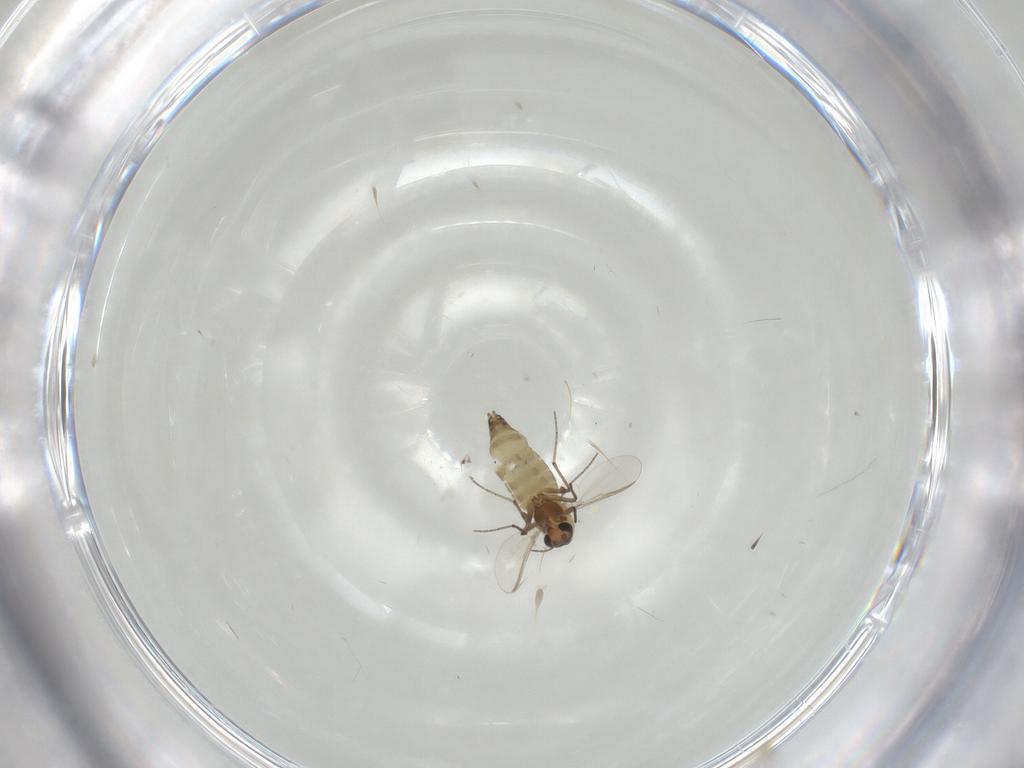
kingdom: Animalia
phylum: Arthropoda
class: Insecta
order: Diptera
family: Chironomidae
